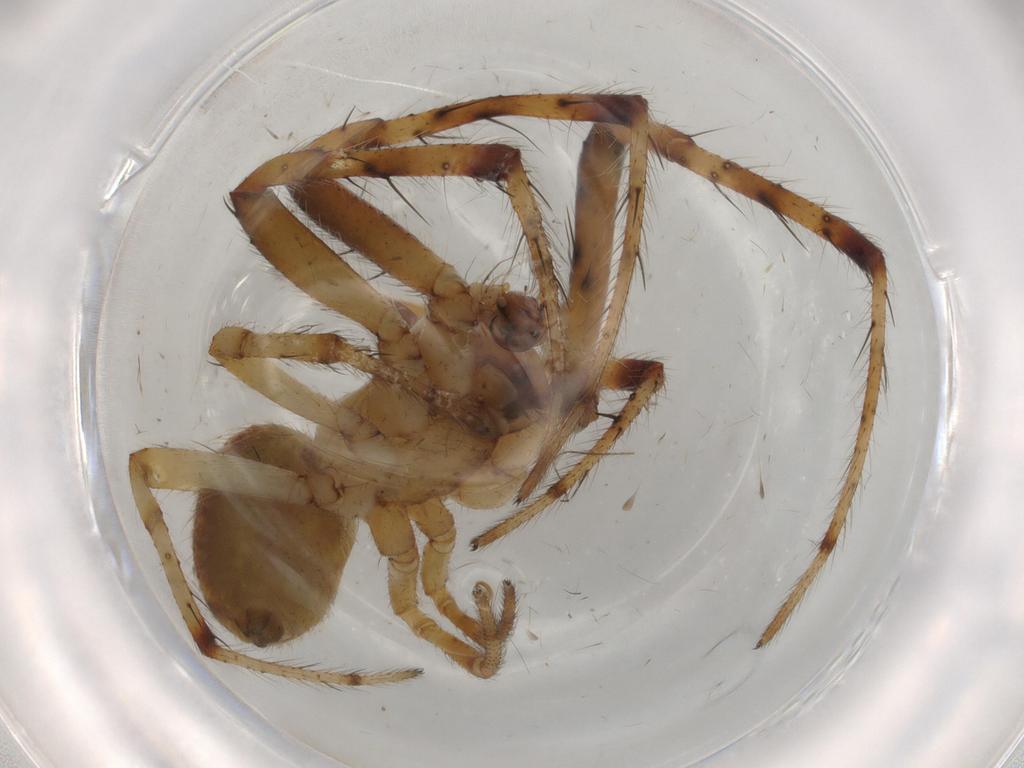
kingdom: Animalia
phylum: Arthropoda
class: Arachnida
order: Araneae
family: Araneidae
